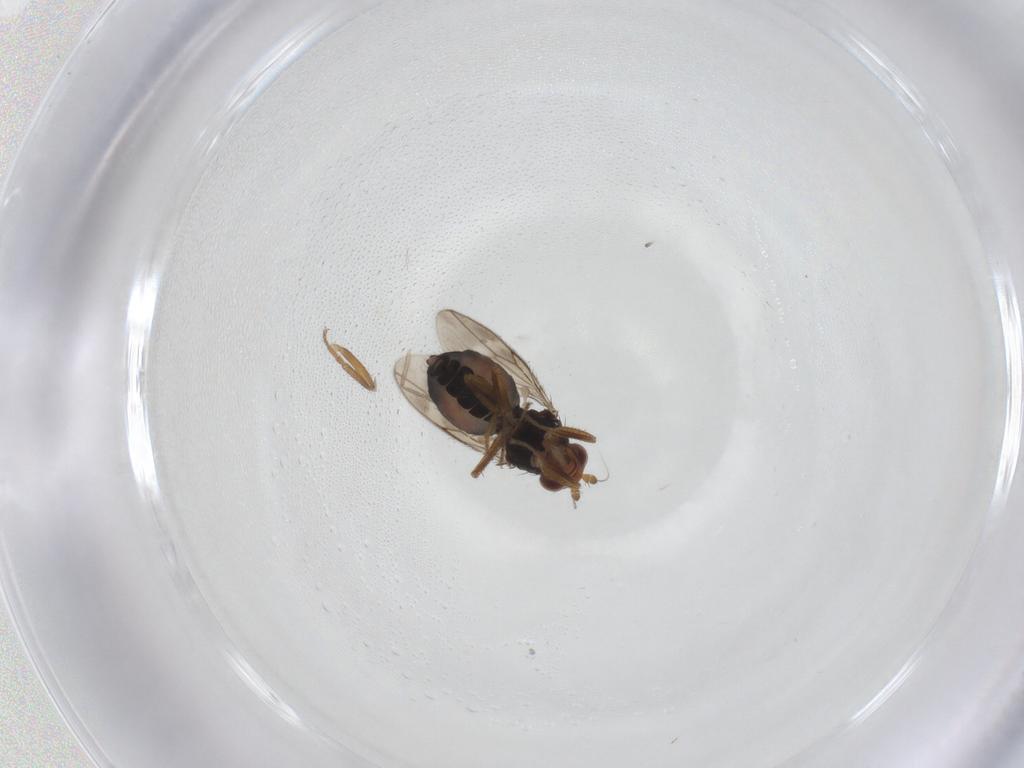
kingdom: Animalia
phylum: Arthropoda
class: Insecta
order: Diptera
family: Sphaeroceridae
